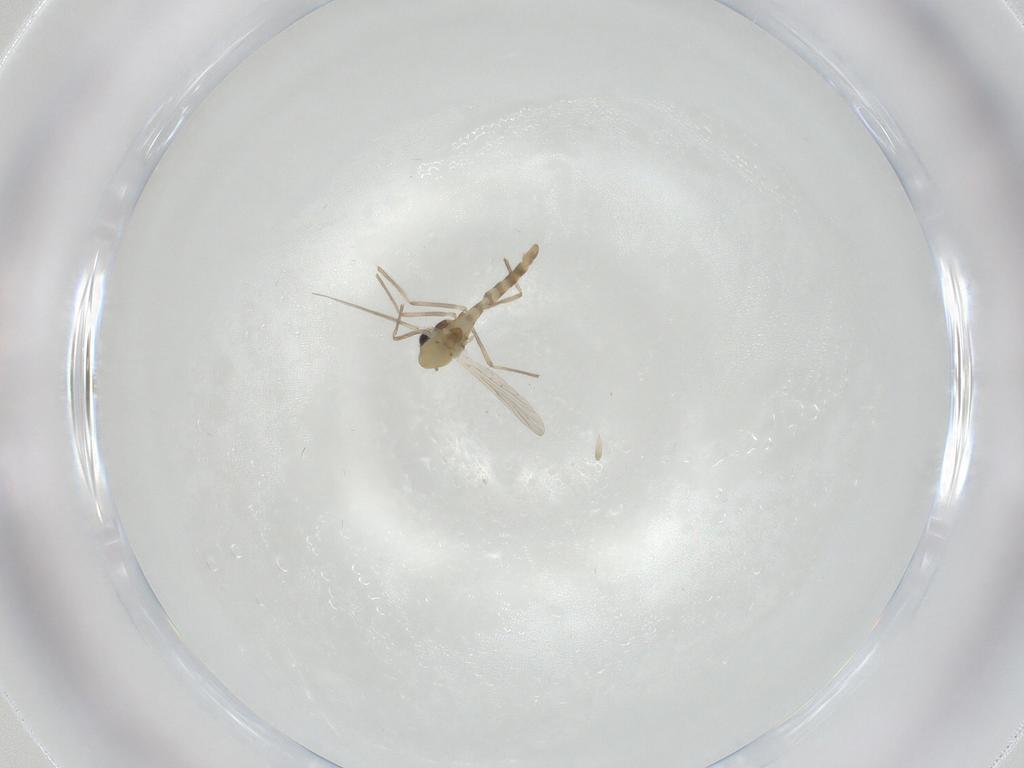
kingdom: Animalia
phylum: Arthropoda
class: Insecta
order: Diptera
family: Chironomidae
